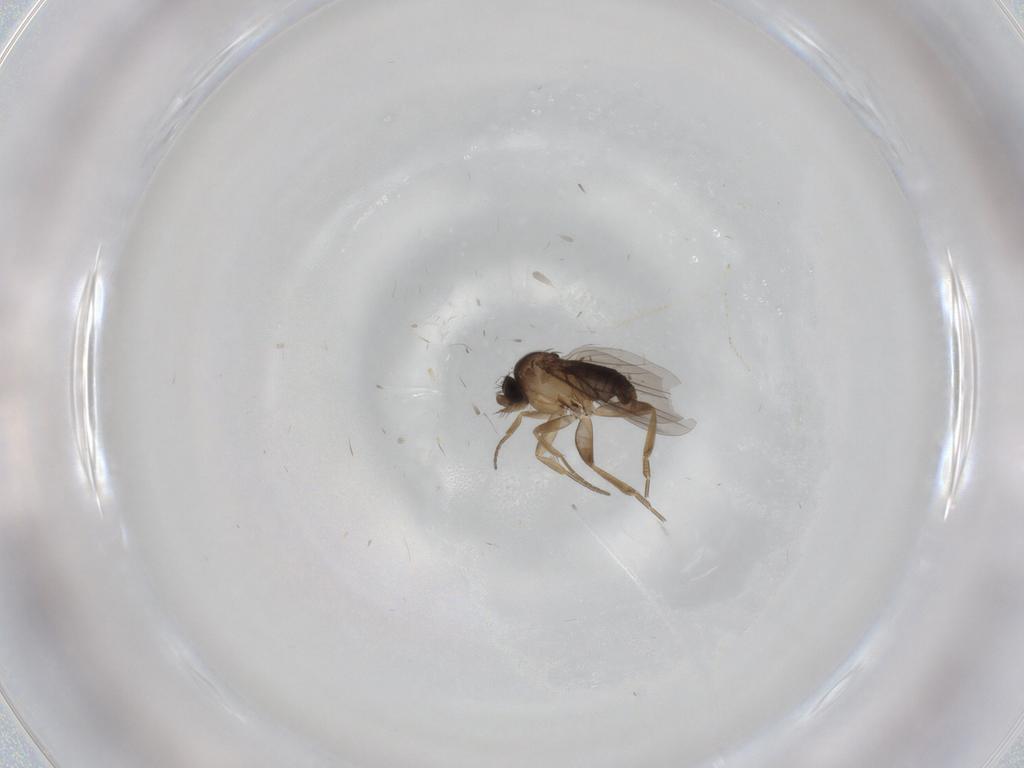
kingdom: Animalia
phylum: Arthropoda
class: Insecta
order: Diptera
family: Cecidomyiidae
